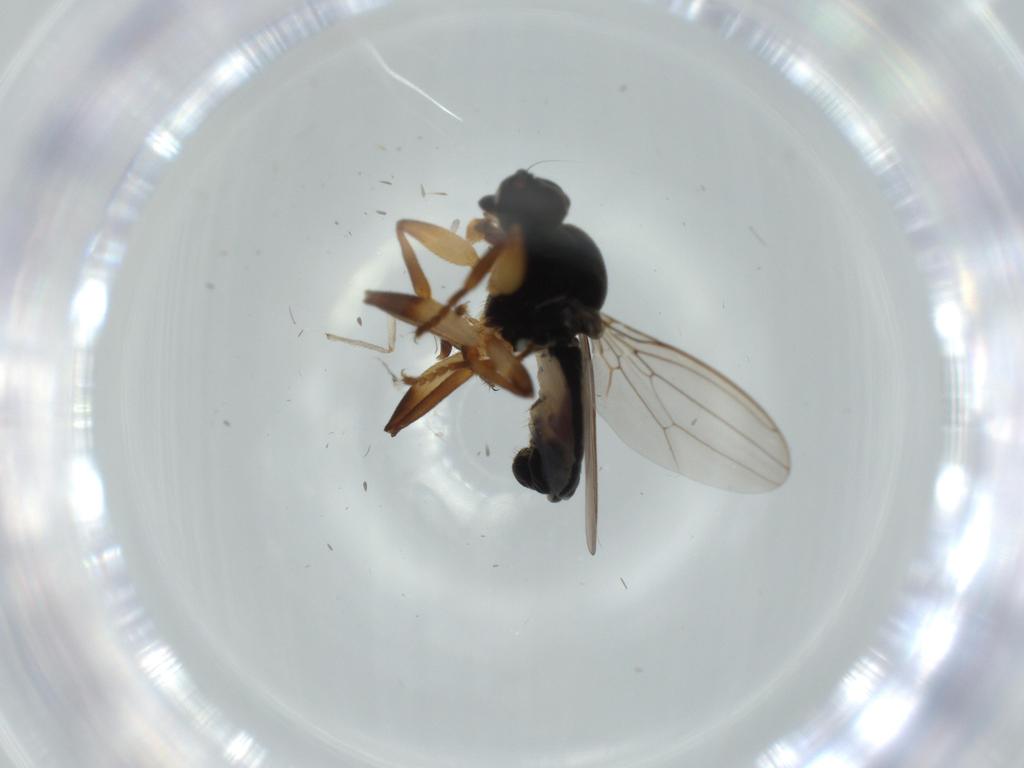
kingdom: Animalia
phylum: Arthropoda
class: Insecta
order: Diptera
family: Sphaeroceridae
